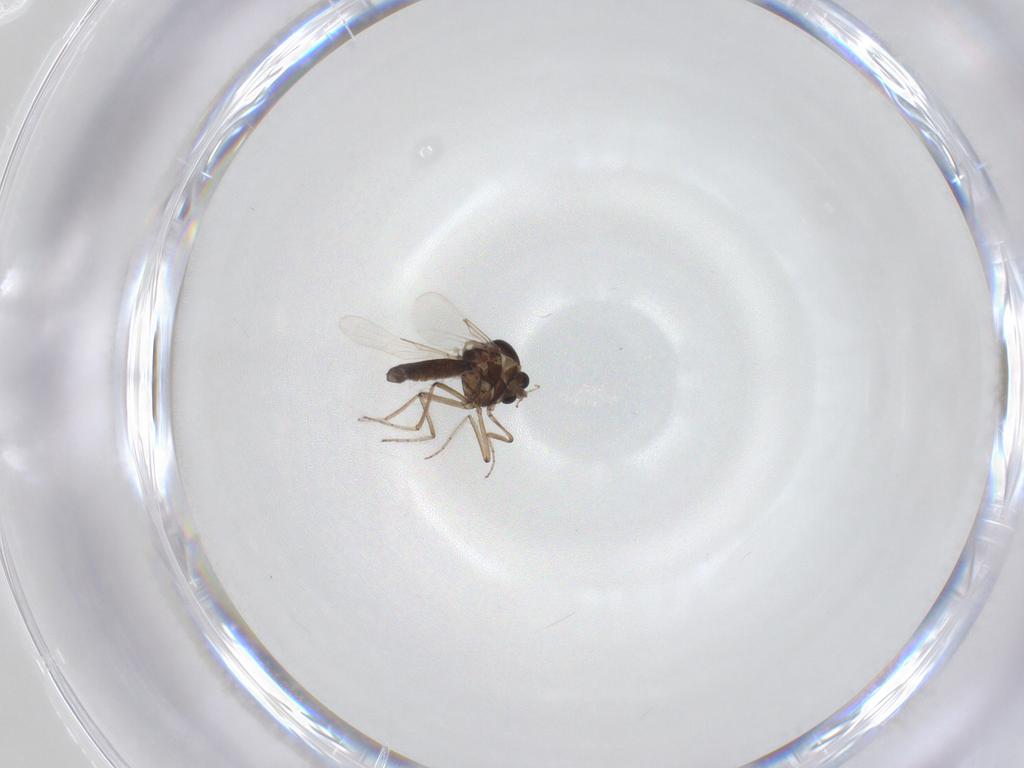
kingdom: Animalia
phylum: Arthropoda
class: Insecta
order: Diptera
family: Ceratopogonidae
